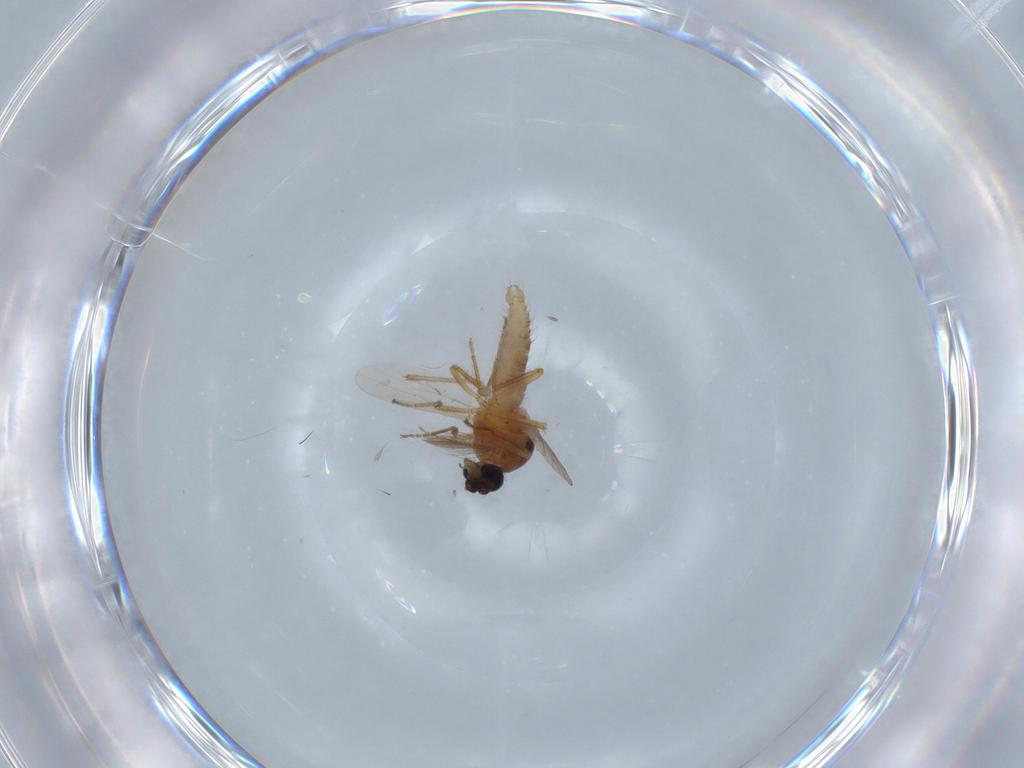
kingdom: Animalia
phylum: Arthropoda
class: Insecta
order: Diptera
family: Ceratopogonidae
